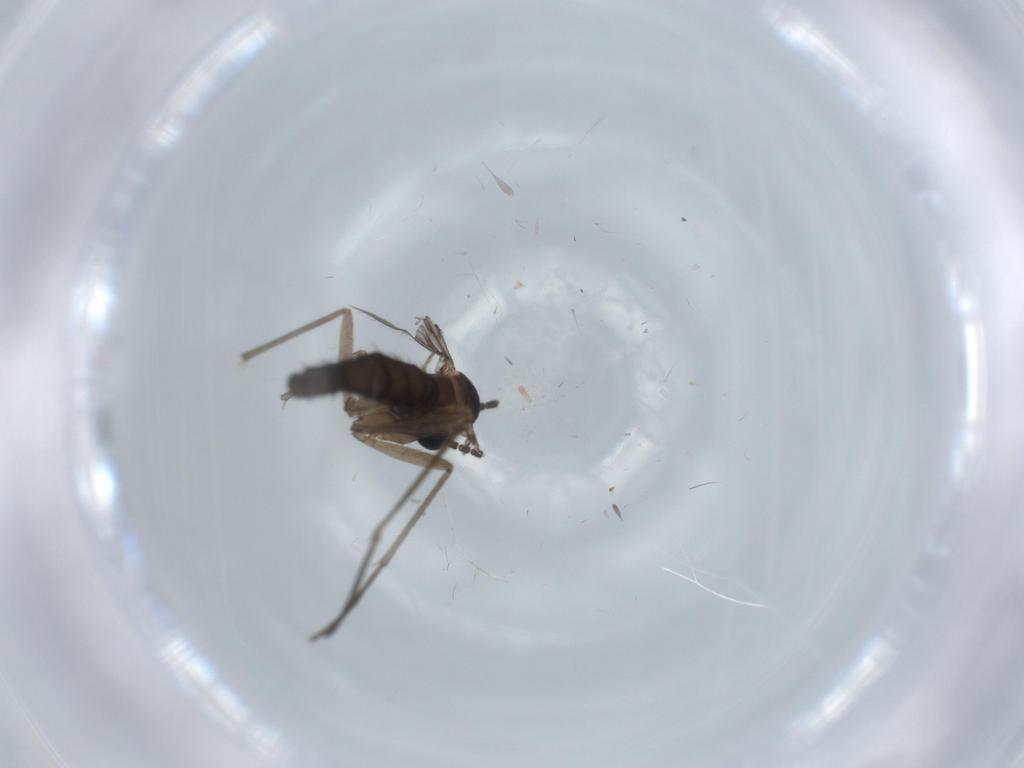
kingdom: Animalia
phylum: Arthropoda
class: Insecta
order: Diptera
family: Sciaridae
